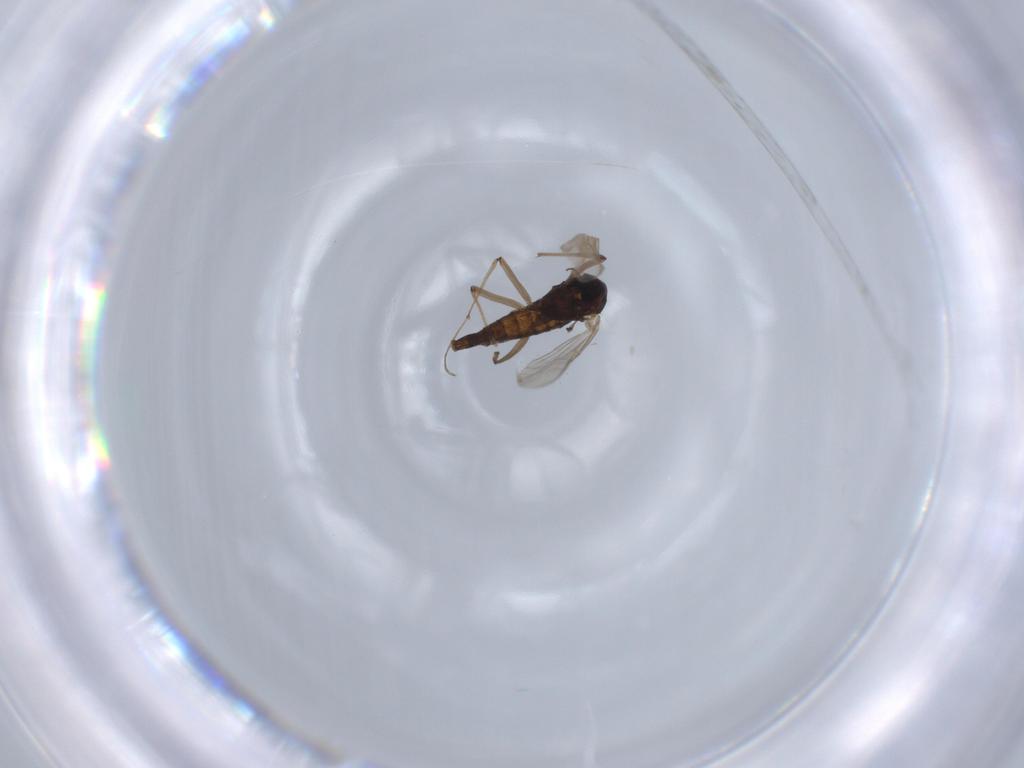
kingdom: Animalia
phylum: Arthropoda
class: Insecta
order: Diptera
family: Chironomidae
